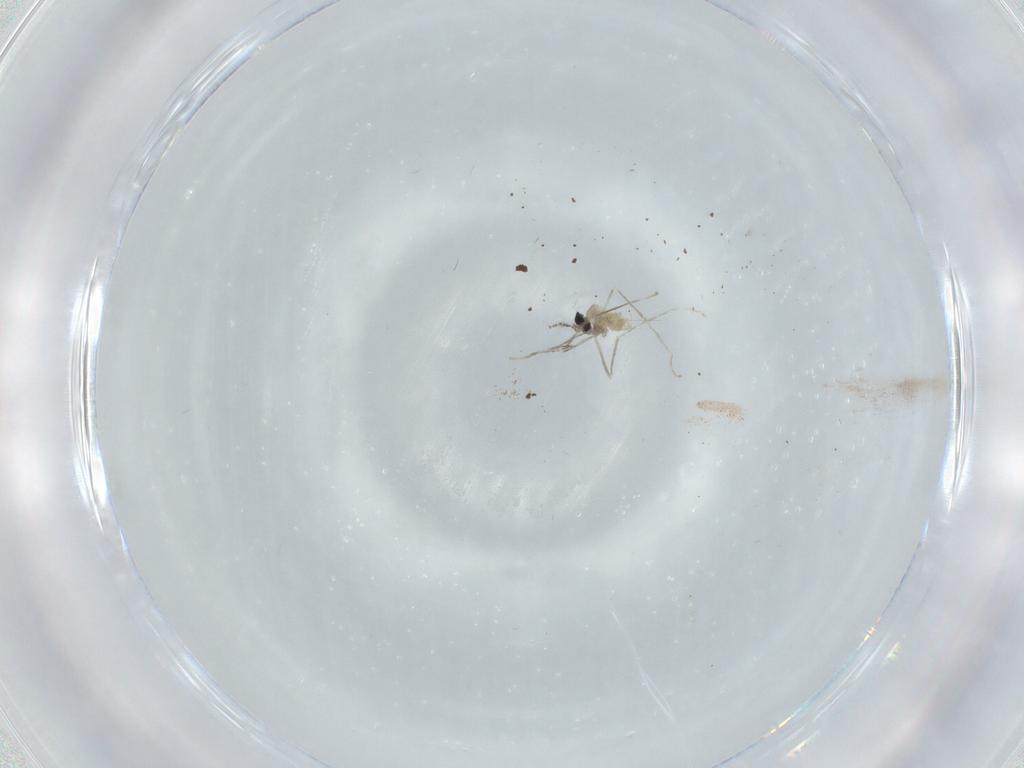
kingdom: Animalia
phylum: Arthropoda
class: Insecta
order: Diptera
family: Cecidomyiidae
